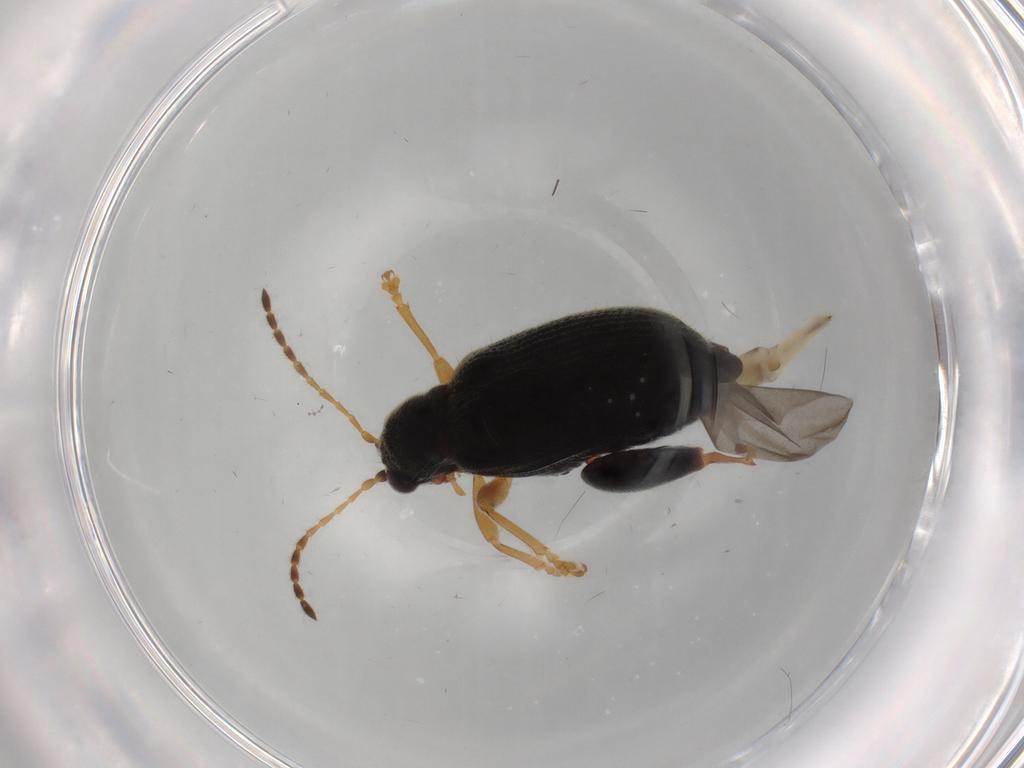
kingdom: Animalia
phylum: Arthropoda
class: Insecta
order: Coleoptera
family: Chrysomelidae
